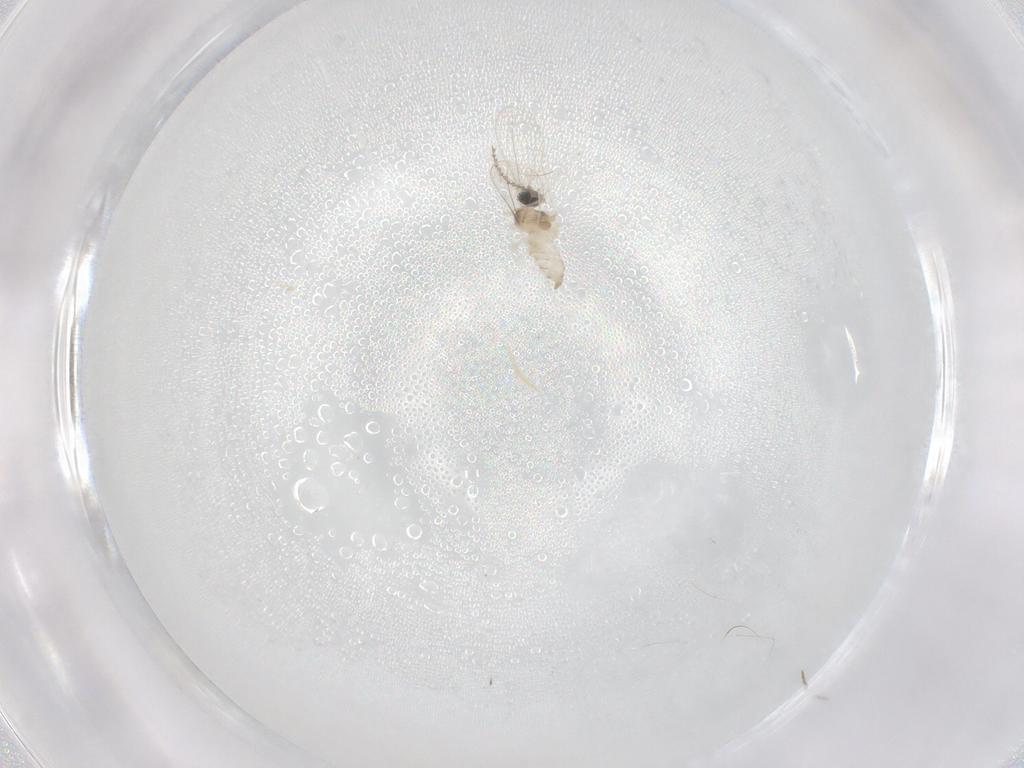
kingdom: Animalia
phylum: Arthropoda
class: Insecta
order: Diptera
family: Cecidomyiidae
